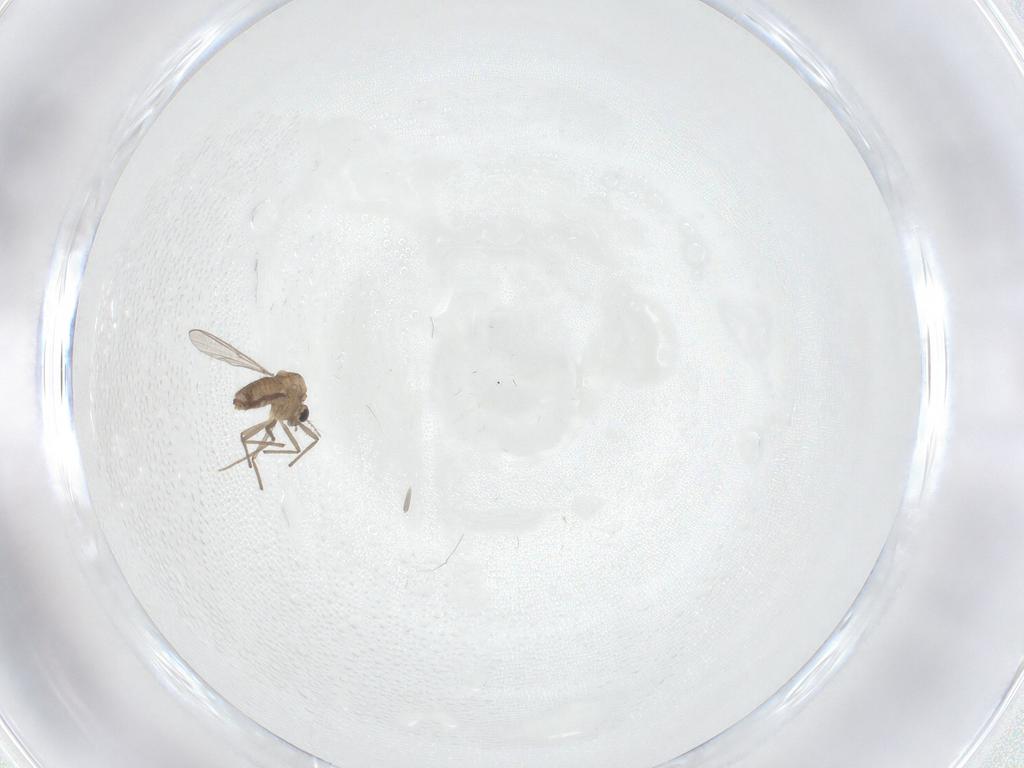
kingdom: Animalia
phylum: Arthropoda
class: Insecta
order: Diptera
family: Chironomidae
